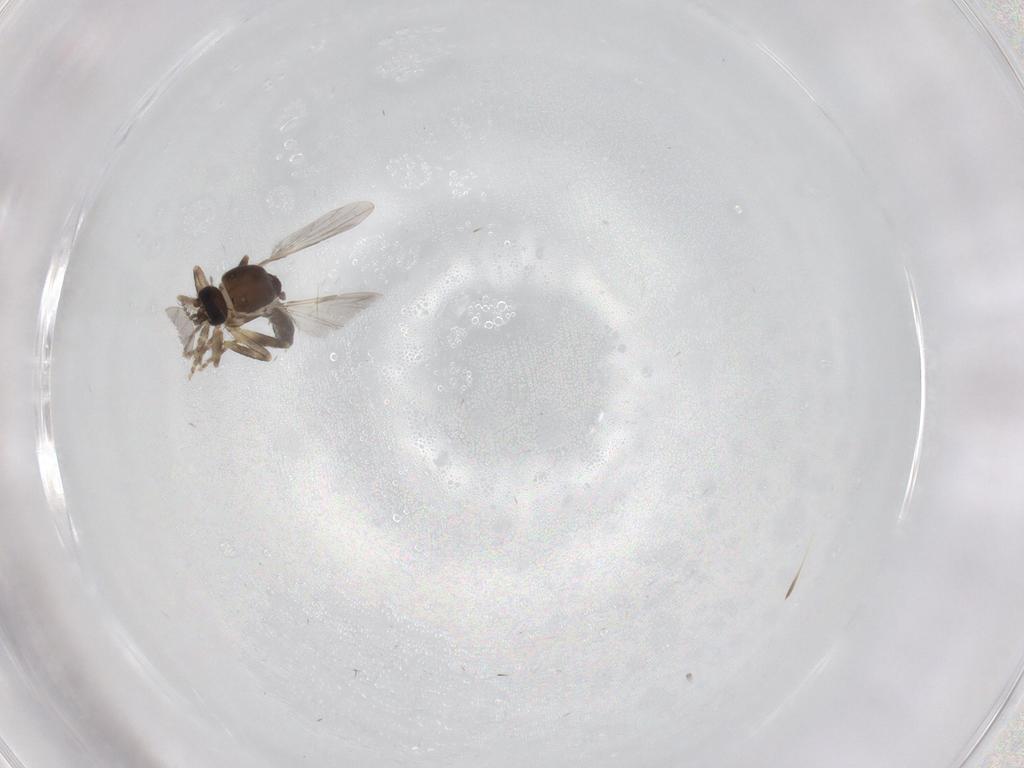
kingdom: Animalia
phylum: Arthropoda
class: Insecta
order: Diptera
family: Ceratopogonidae
